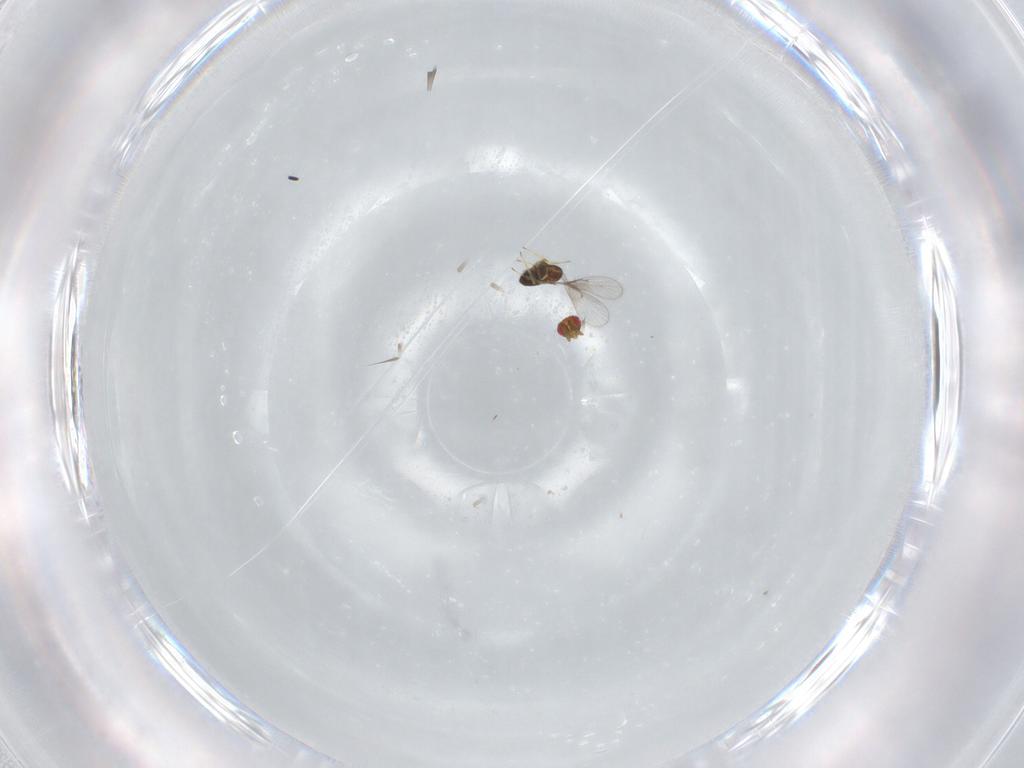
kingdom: Animalia
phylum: Arthropoda
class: Insecta
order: Hymenoptera
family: Trichogrammatidae
